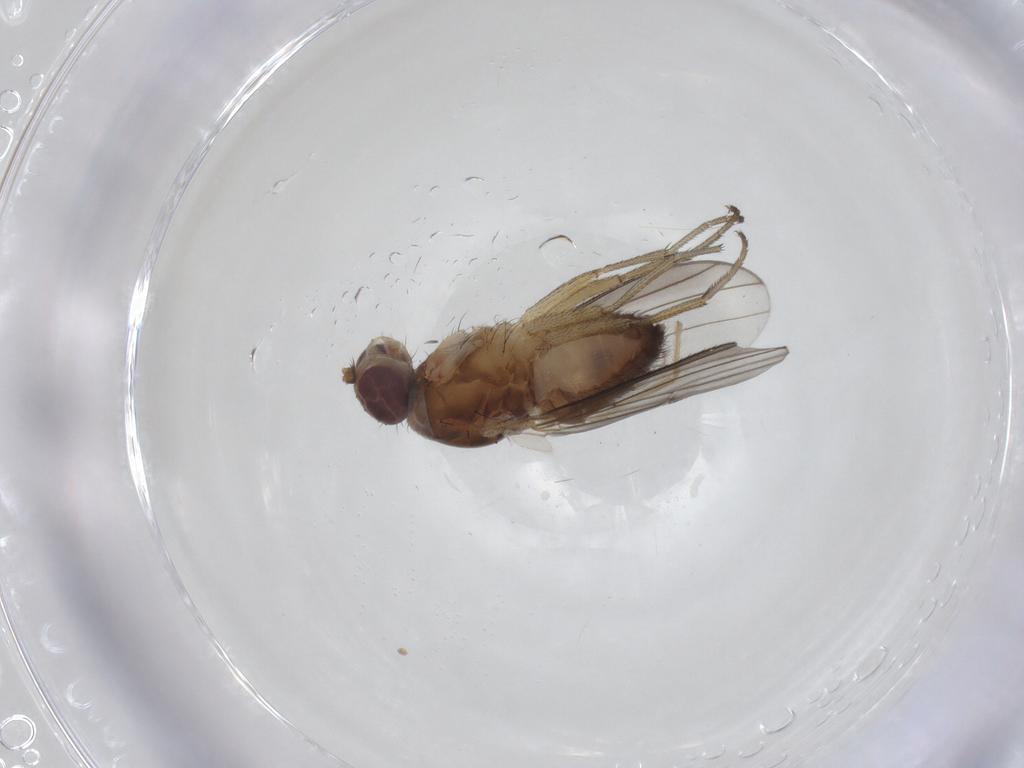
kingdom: Animalia
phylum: Arthropoda
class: Insecta
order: Diptera
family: Heleomyzidae
